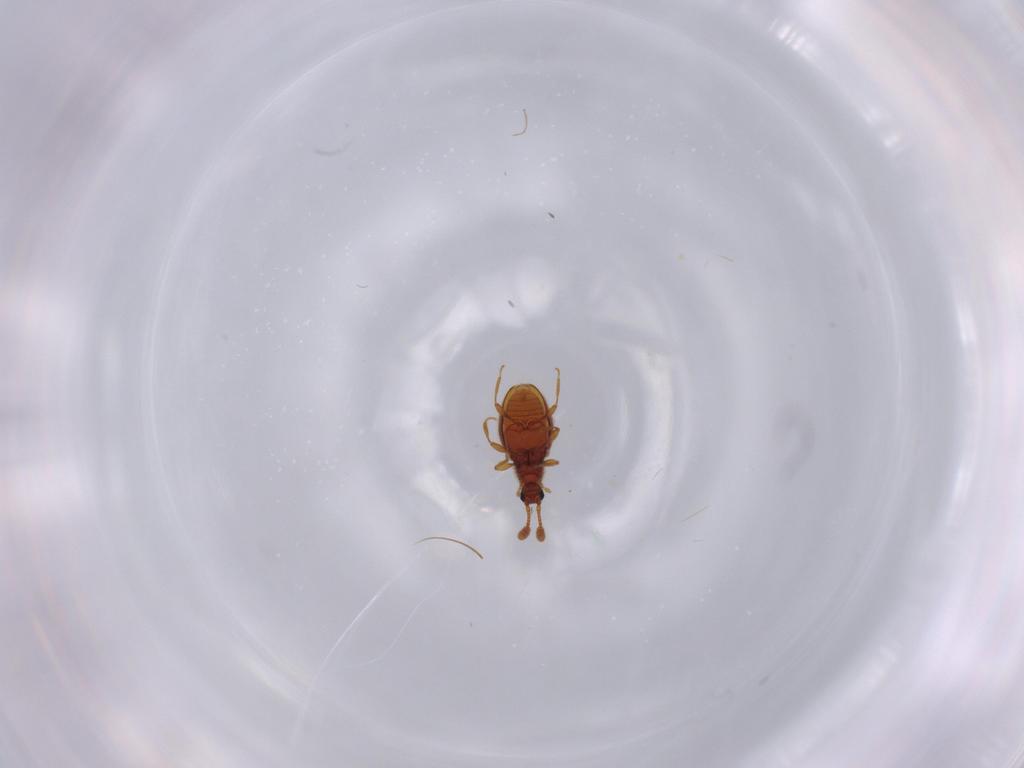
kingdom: Animalia
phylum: Arthropoda
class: Insecta
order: Coleoptera
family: Staphylinidae
